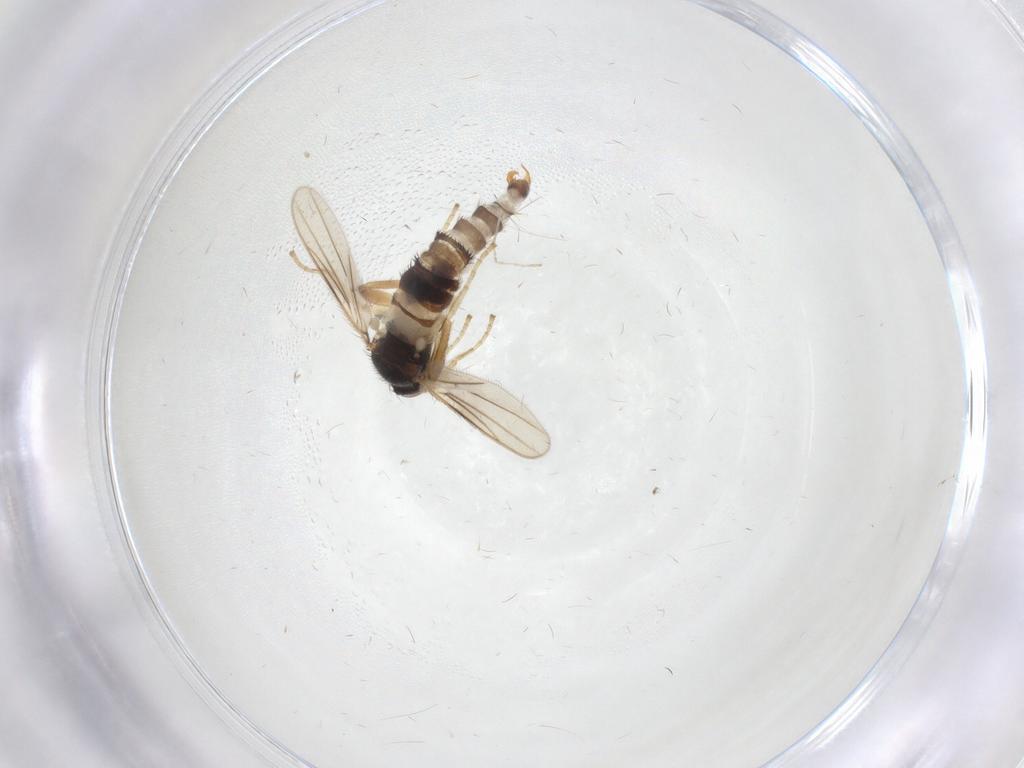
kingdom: Animalia
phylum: Arthropoda
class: Insecta
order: Diptera
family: Hybotidae
